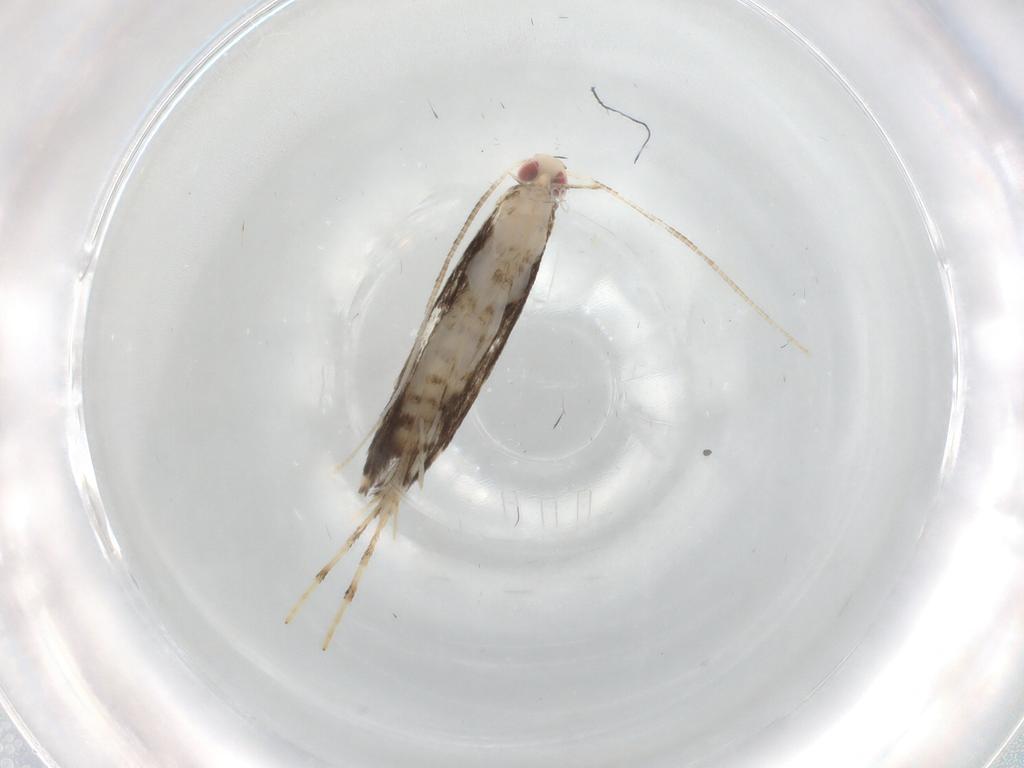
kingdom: Animalia
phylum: Arthropoda
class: Insecta
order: Lepidoptera
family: Gracillariidae
